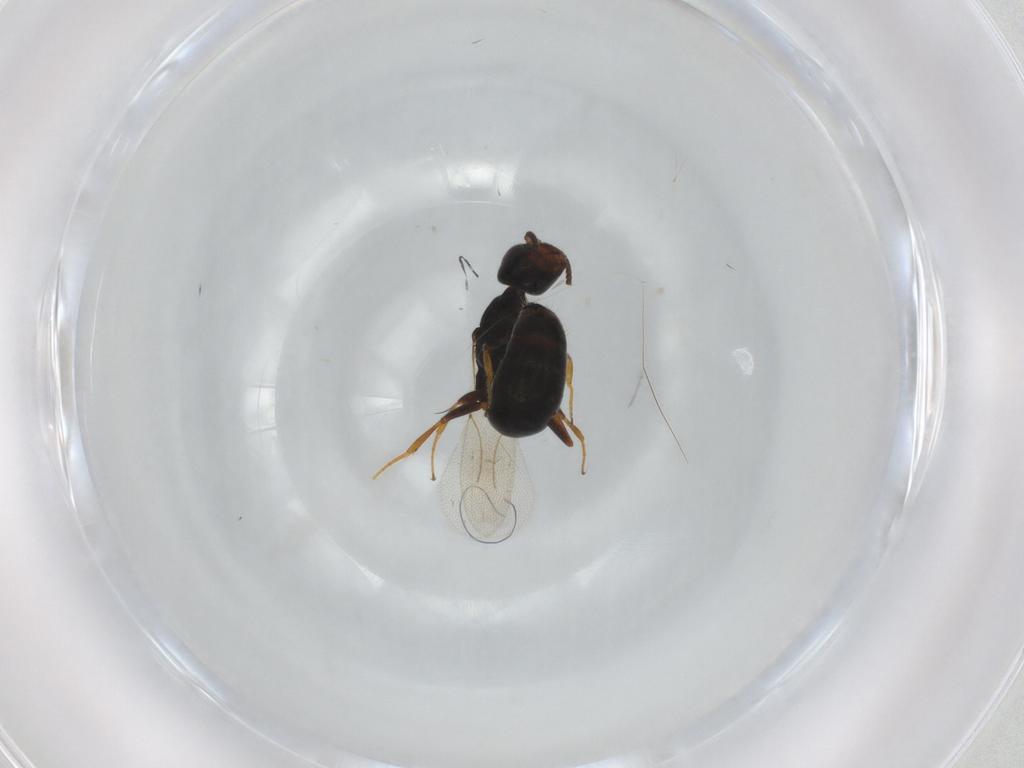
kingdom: Animalia
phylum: Arthropoda
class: Insecta
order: Hymenoptera
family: Bethylidae
